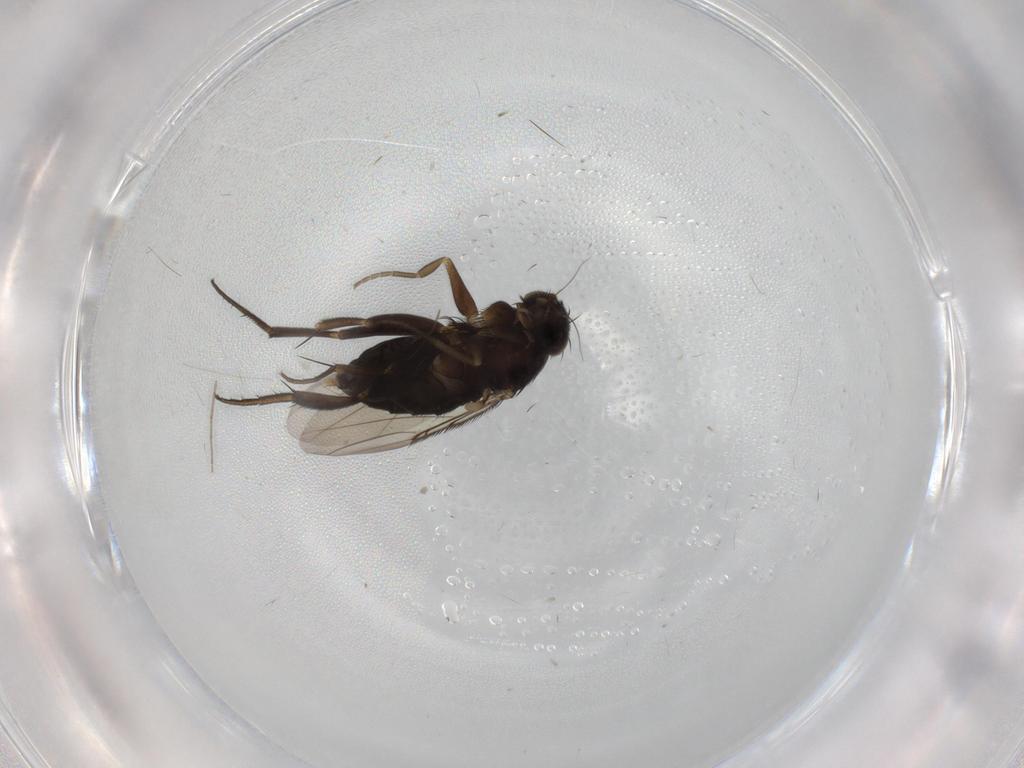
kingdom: Animalia
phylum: Arthropoda
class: Insecta
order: Diptera
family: Phoridae
